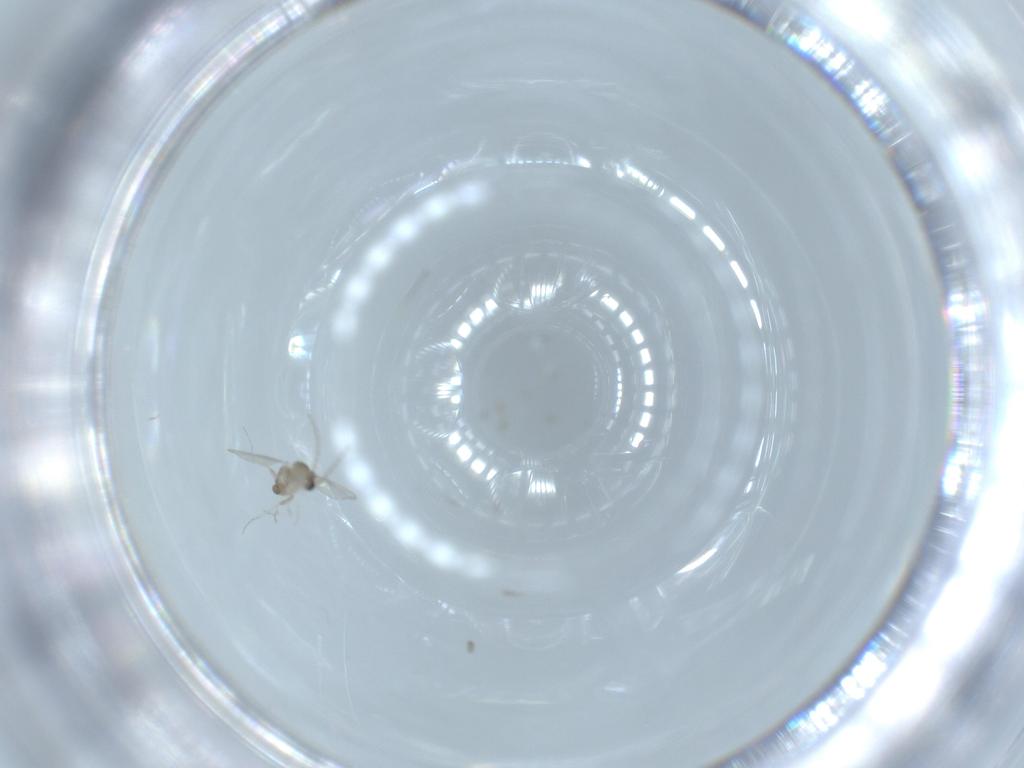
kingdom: Animalia
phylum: Arthropoda
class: Insecta
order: Diptera
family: Cecidomyiidae
